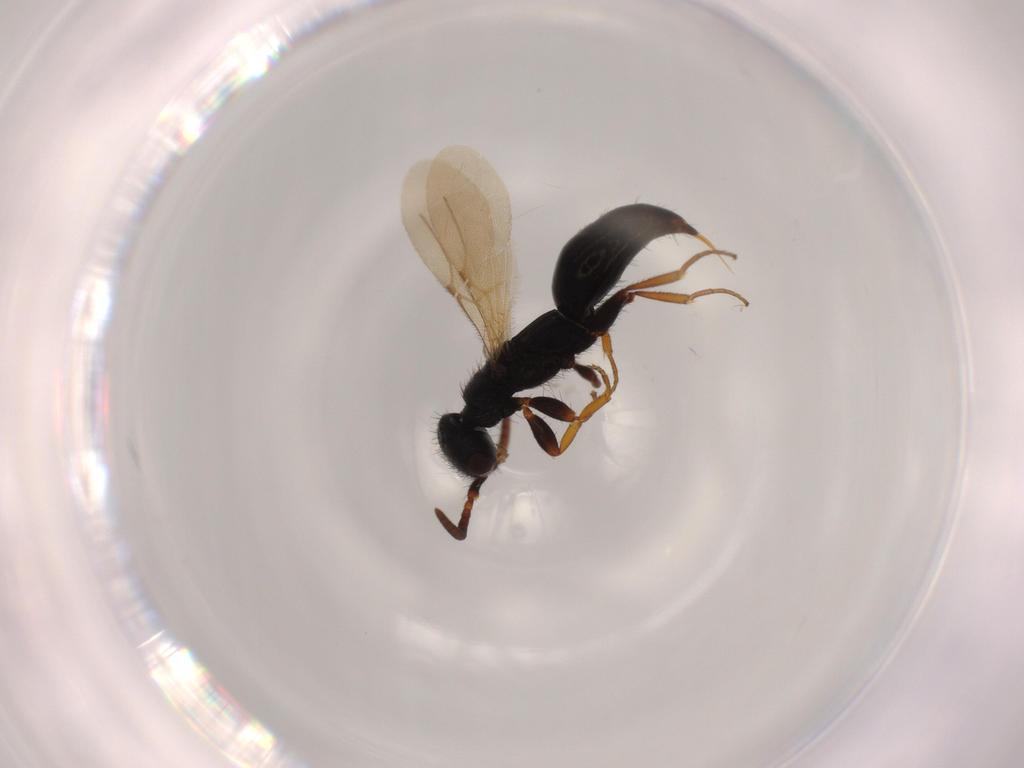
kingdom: Animalia
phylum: Arthropoda
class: Insecta
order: Hymenoptera
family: Bethylidae
